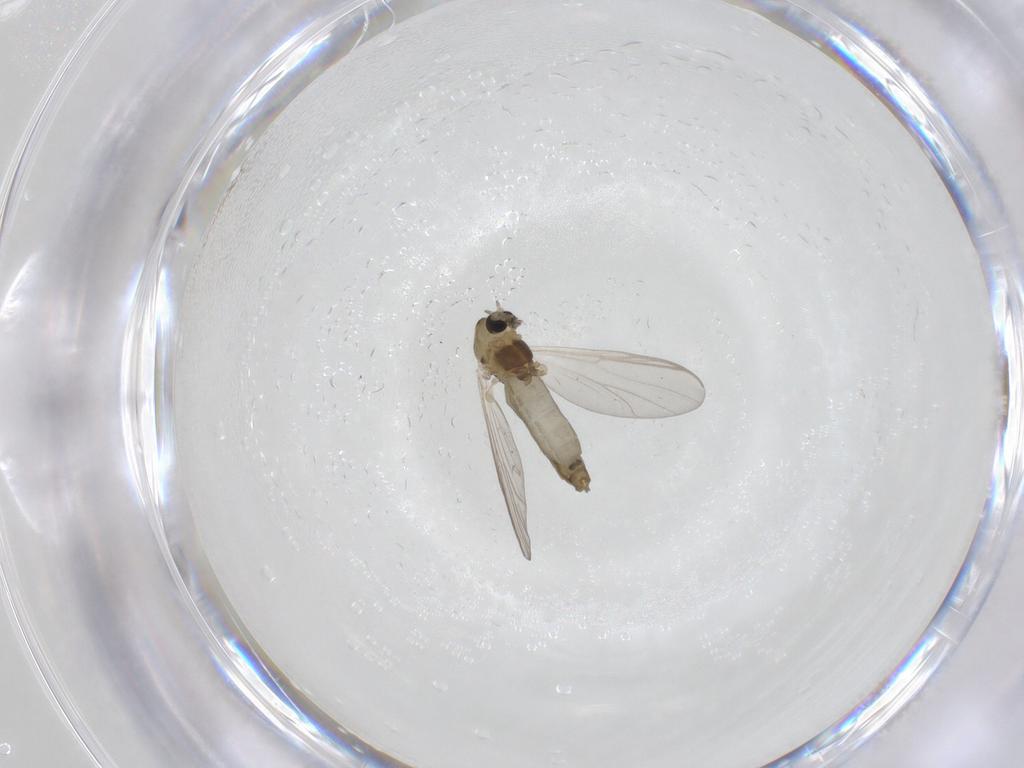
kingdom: Animalia
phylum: Arthropoda
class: Insecta
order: Diptera
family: Chironomidae
